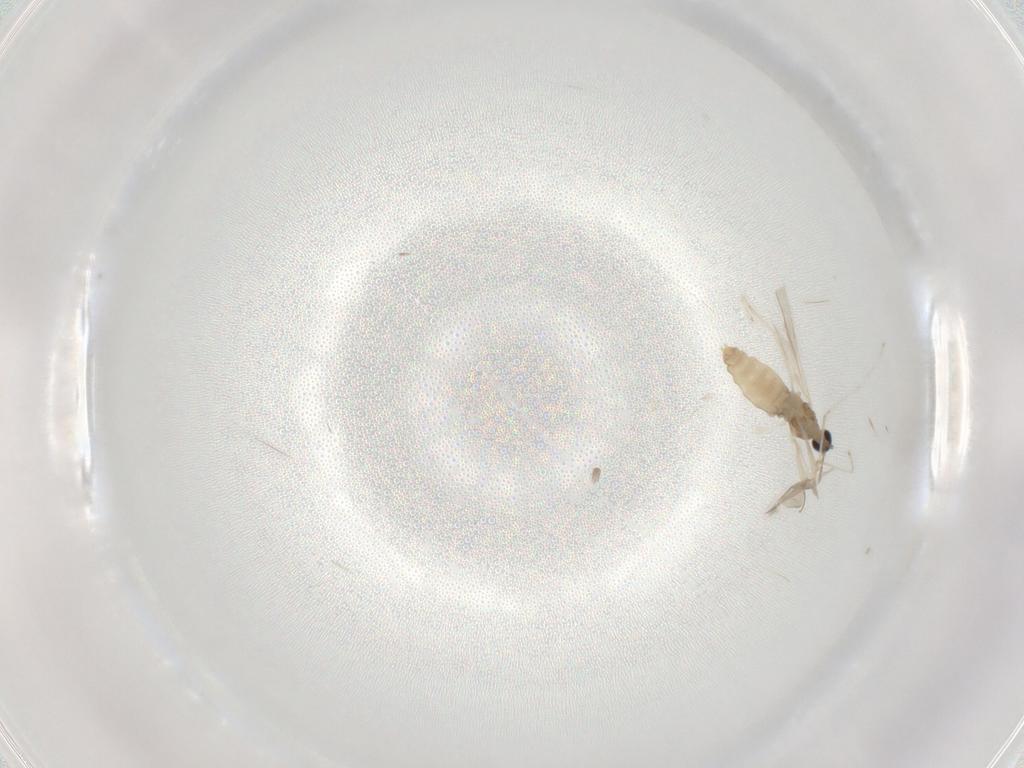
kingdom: Animalia
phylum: Arthropoda
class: Insecta
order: Diptera
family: Cecidomyiidae
